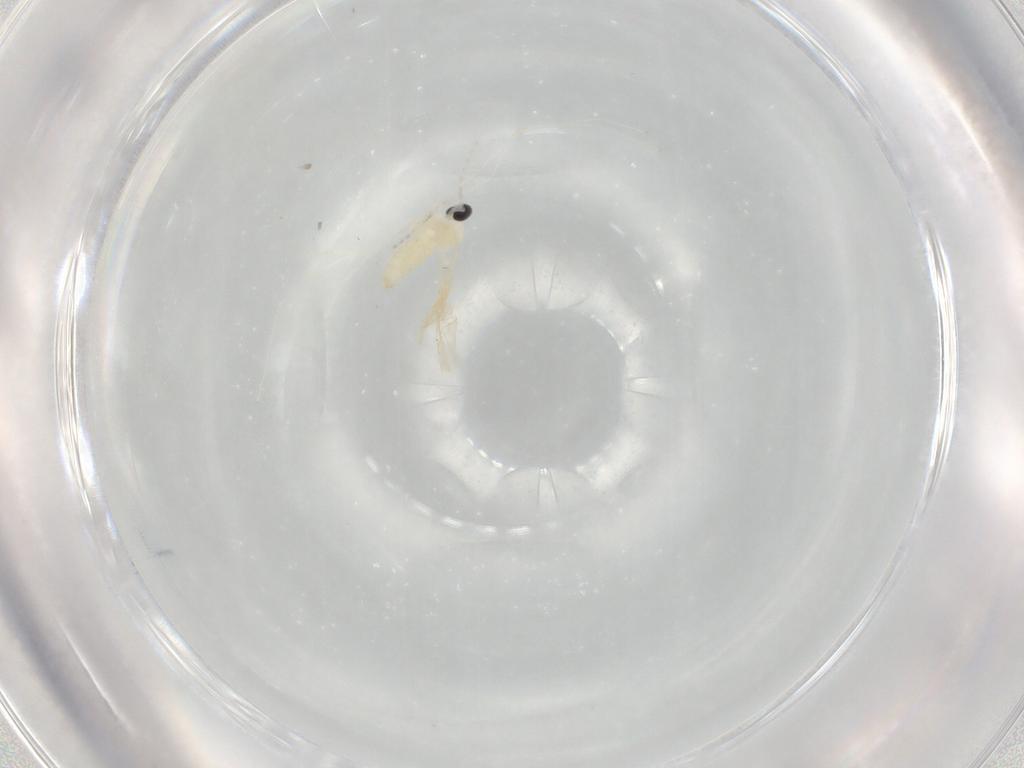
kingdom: Animalia
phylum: Arthropoda
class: Insecta
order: Diptera
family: Cecidomyiidae
